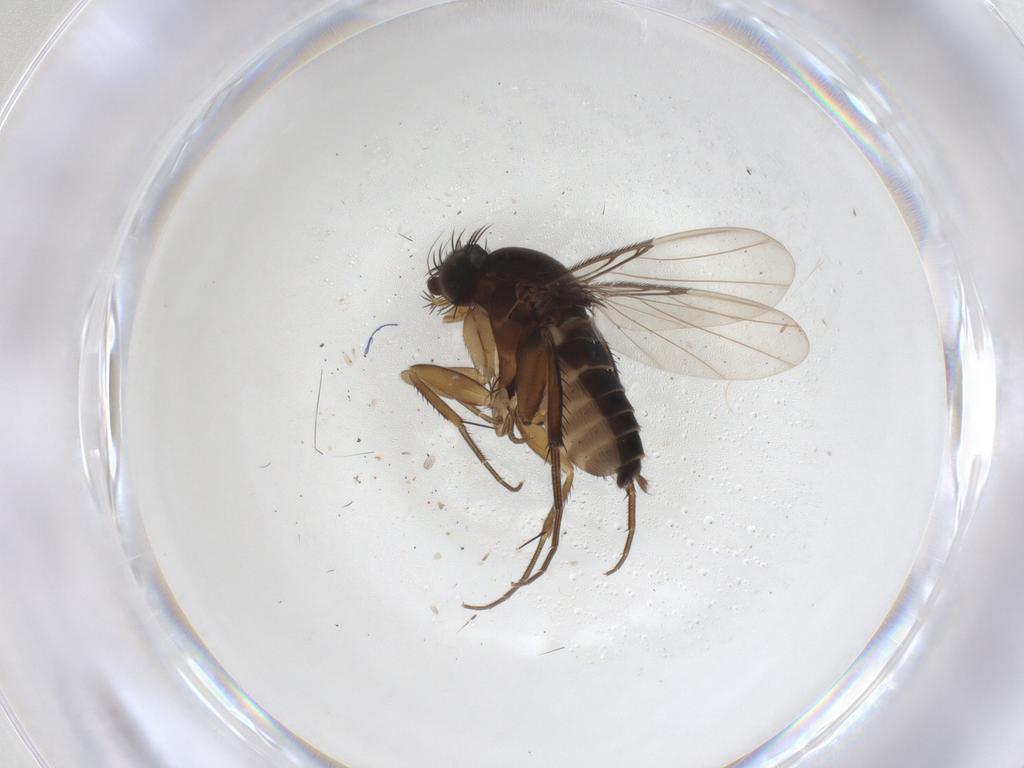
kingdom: Animalia
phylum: Arthropoda
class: Insecta
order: Diptera
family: Phoridae
